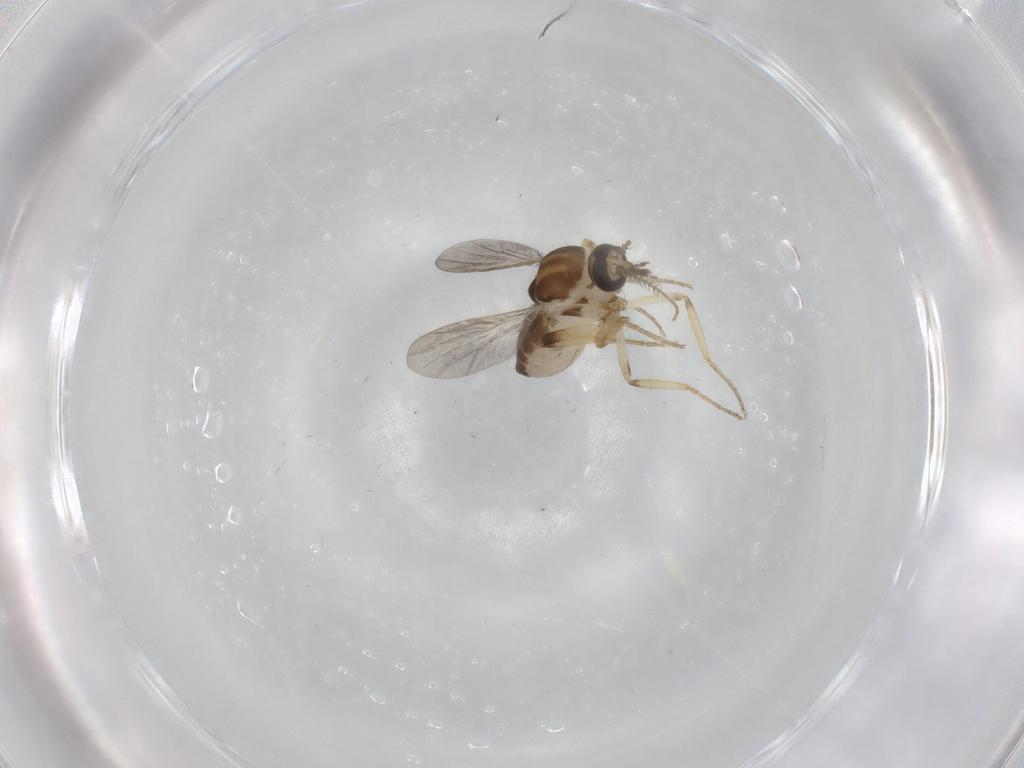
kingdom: Animalia
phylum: Arthropoda
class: Insecta
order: Diptera
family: Ceratopogonidae
